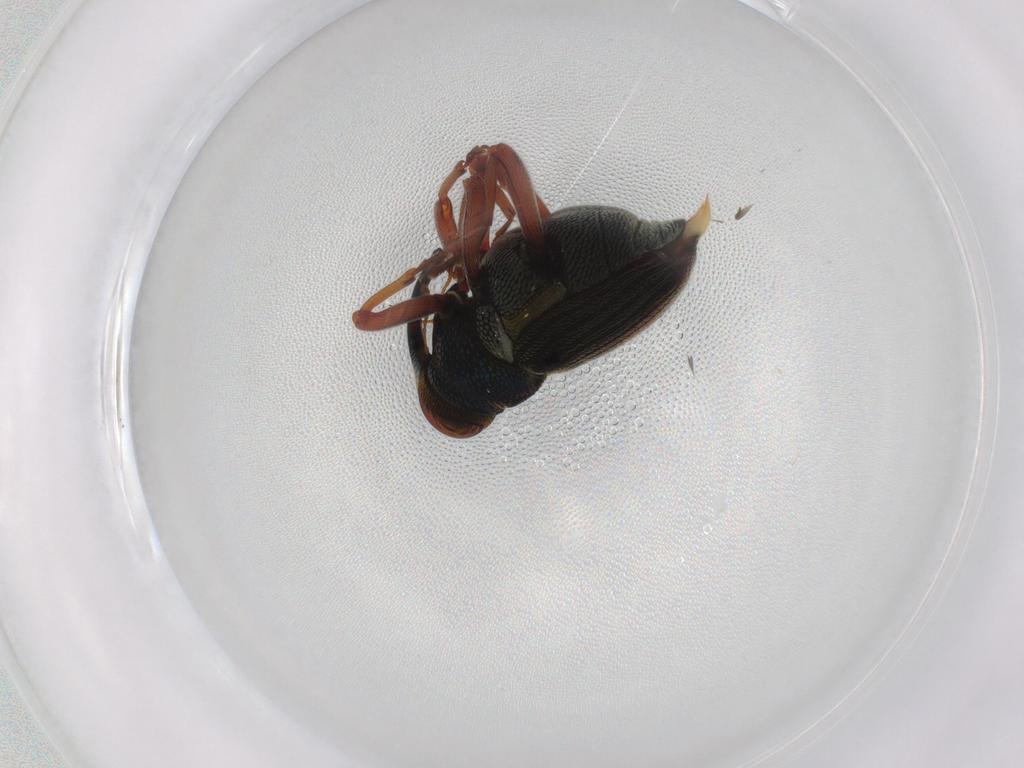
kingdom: Animalia
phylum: Arthropoda
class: Insecta
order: Coleoptera
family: Curculionidae
